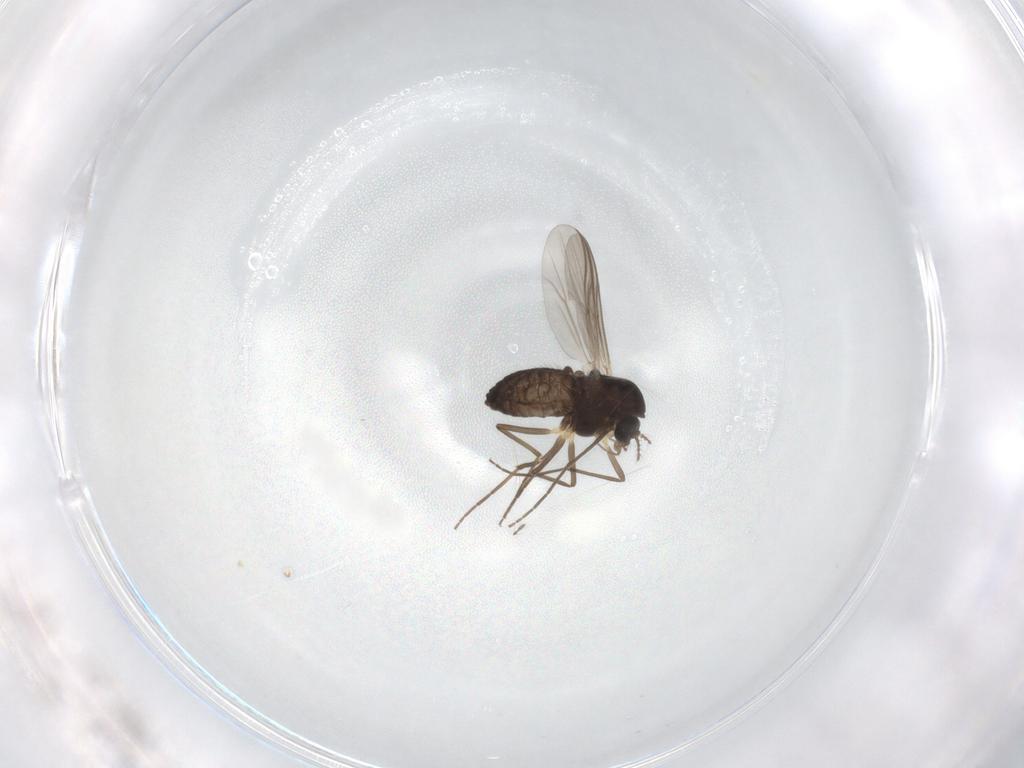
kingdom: Animalia
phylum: Arthropoda
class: Insecta
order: Diptera
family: Chironomidae
